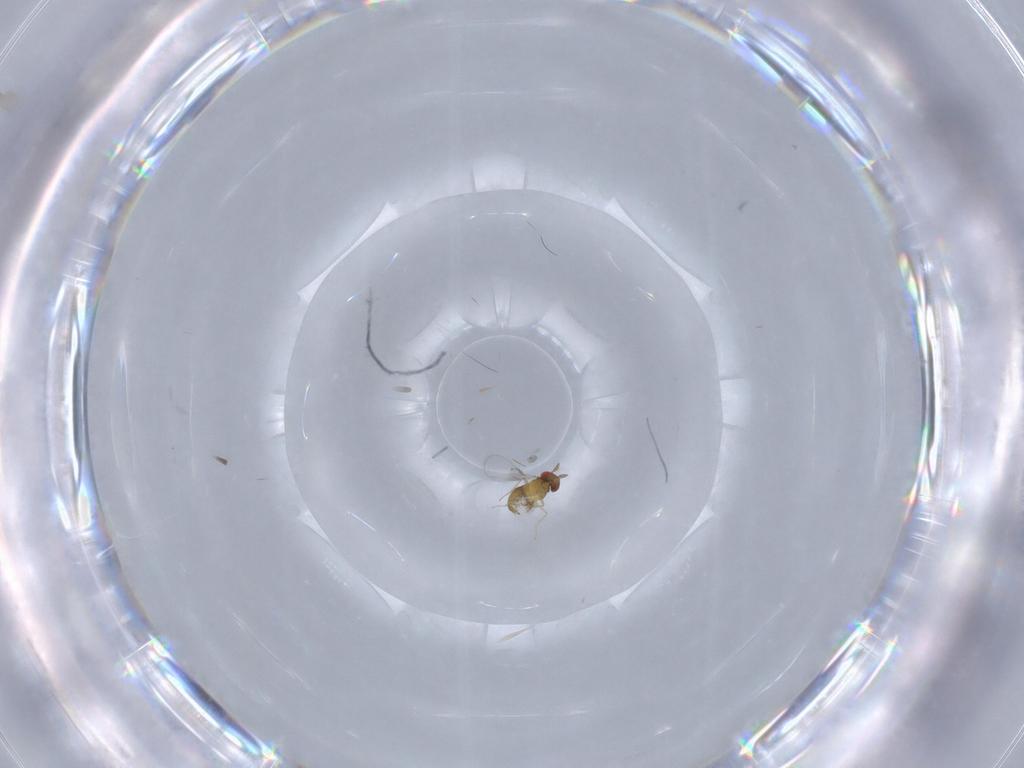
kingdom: Animalia
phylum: Arthropoda
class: Insecta
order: Hymenoptera
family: Trichogrammatidae
